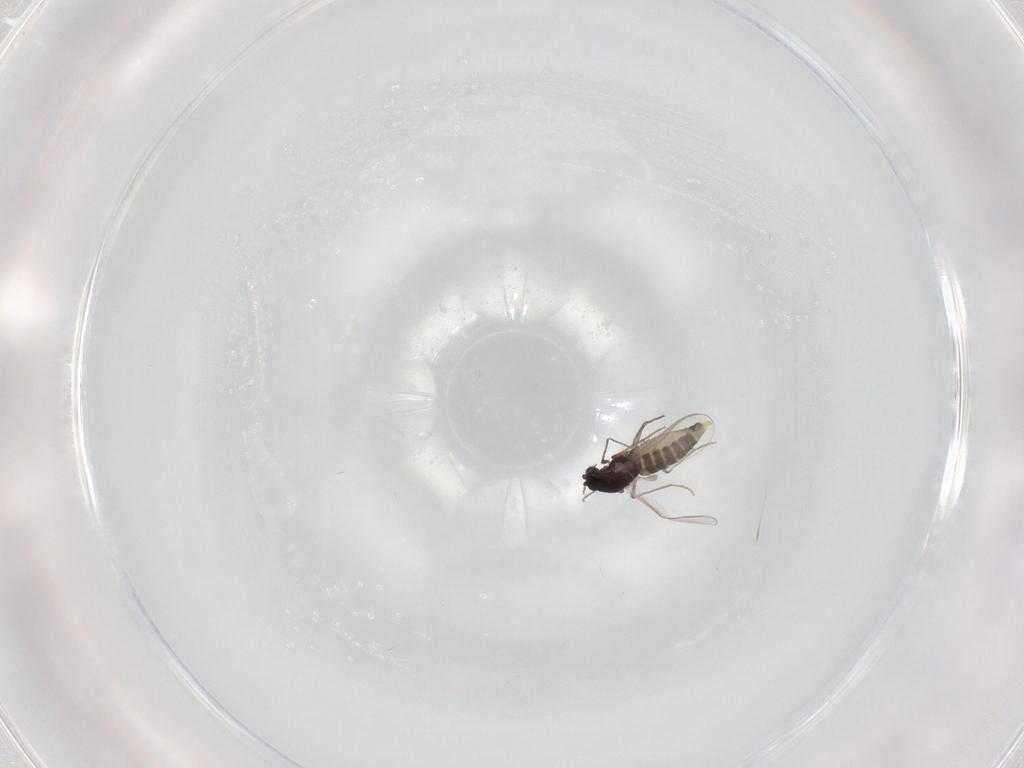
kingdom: Animalia
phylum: Arthropoda
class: Insecta
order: Diptera
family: Chironomidae
